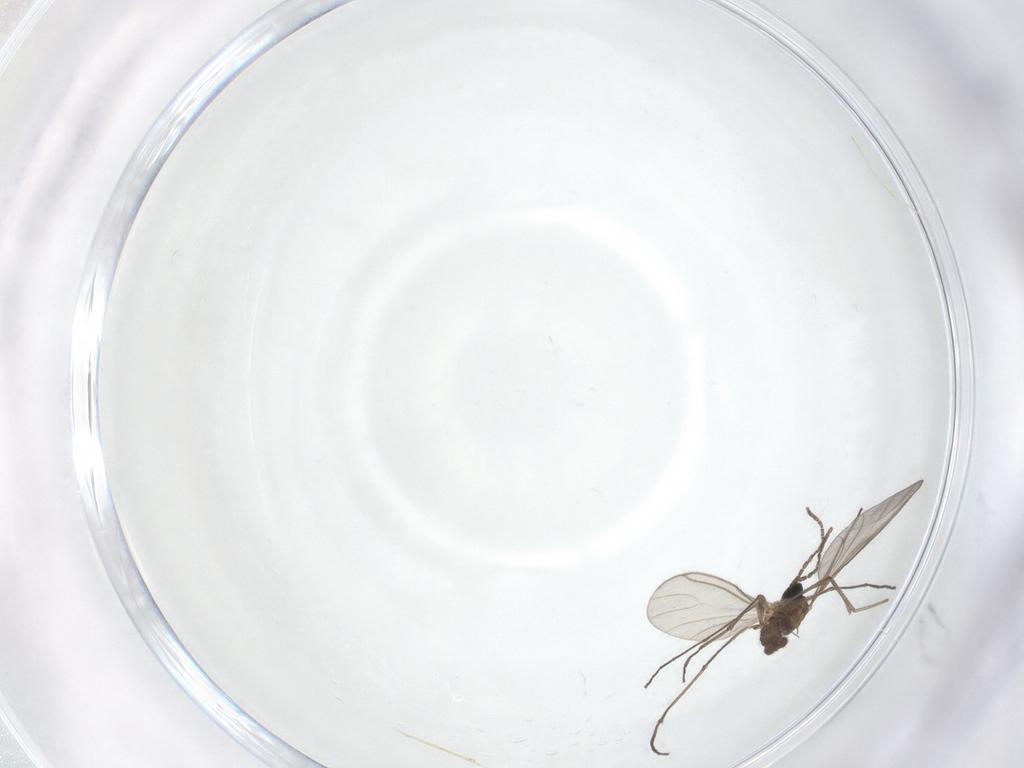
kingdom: Animalia
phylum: Arthropoda
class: Insecta
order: Diptera
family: Sciaridae
